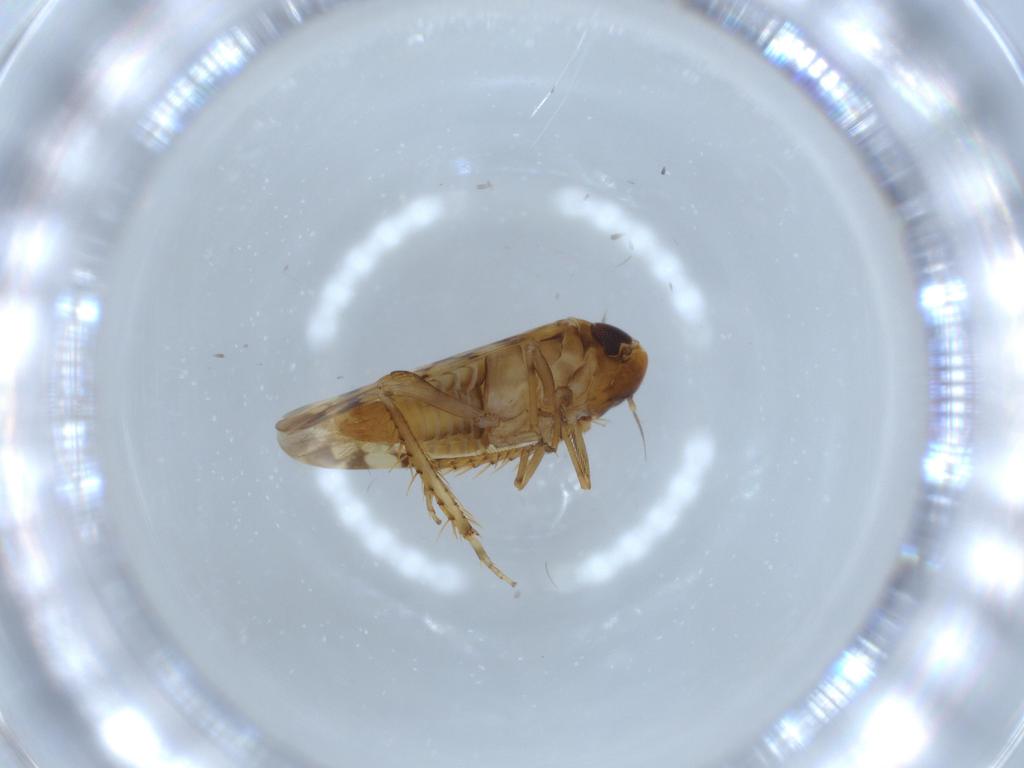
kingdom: Animalia
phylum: Arthropoda
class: Insecta
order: Hemiptera
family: Cicadellidae
